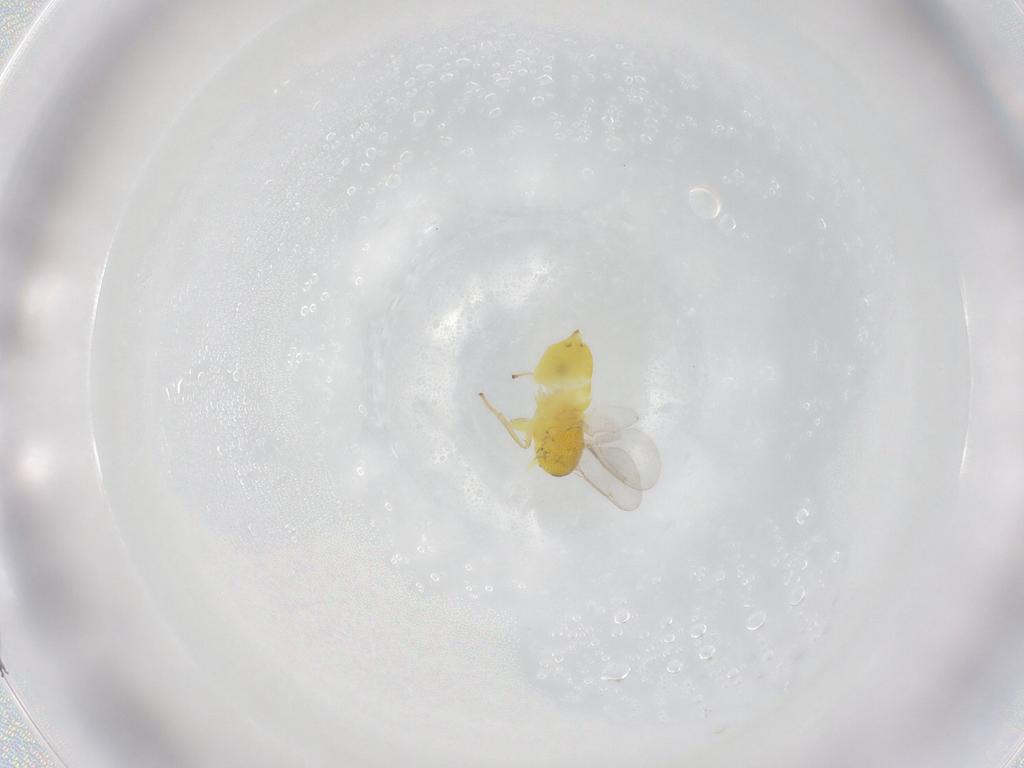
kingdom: Animalia
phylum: Arthropoda
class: Insecta
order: Hymenoptera
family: Aphelinidae
